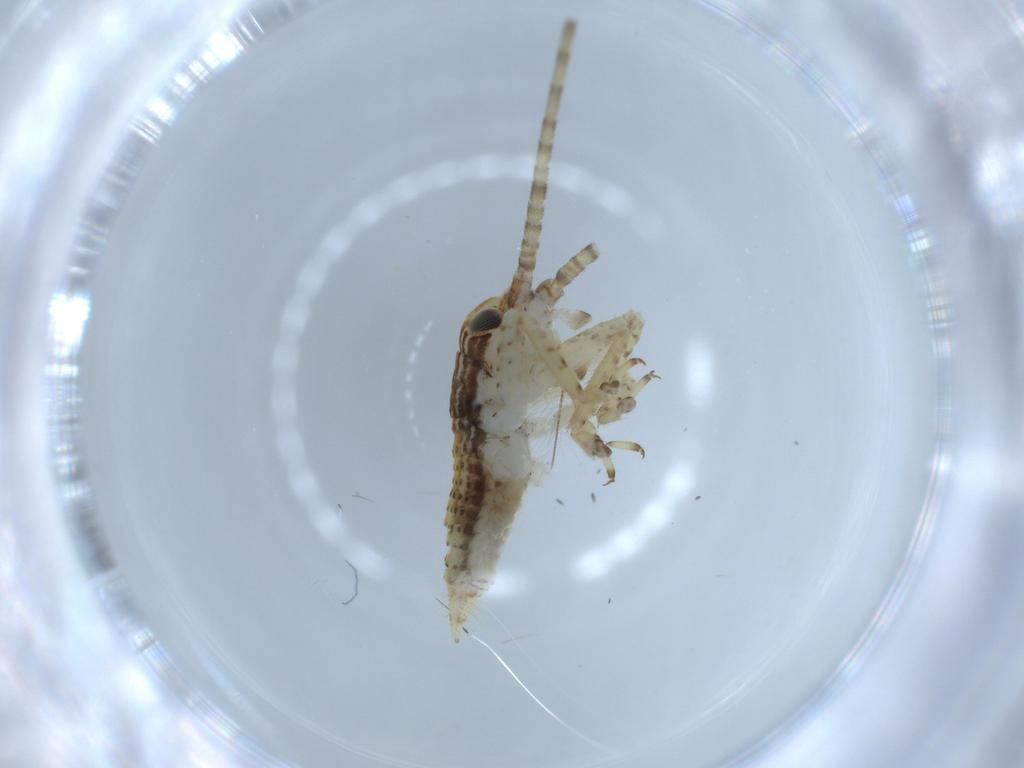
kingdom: Animalia
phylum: Arthropoda
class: Insecta
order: Orthoptera
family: Gryllidae
